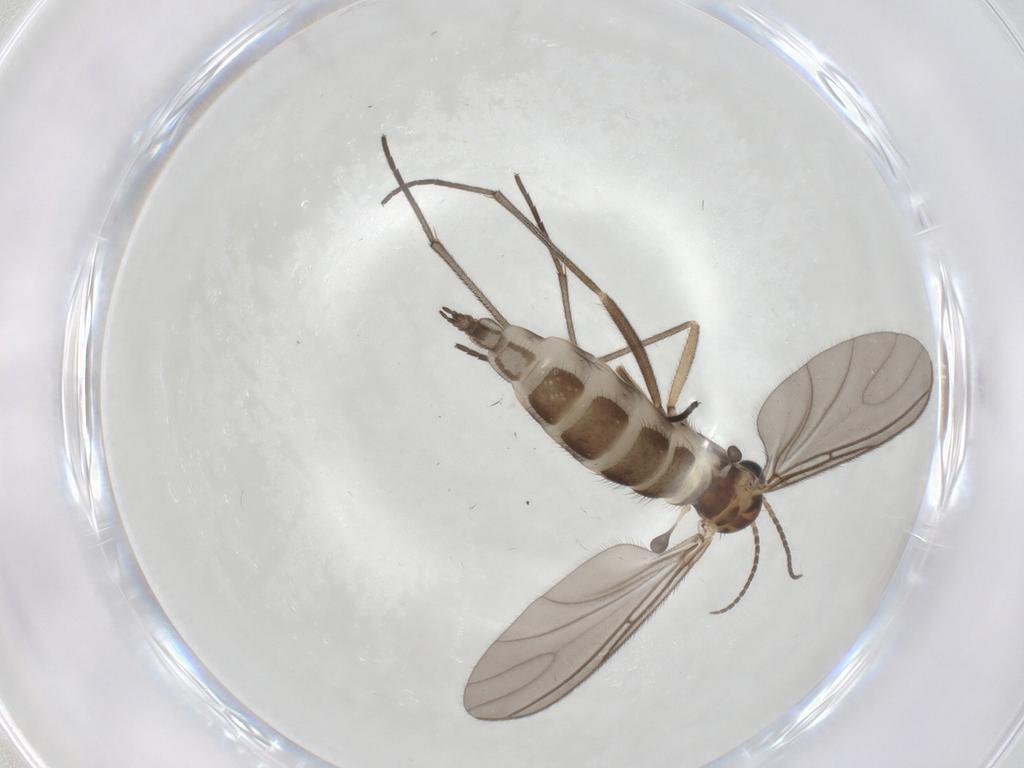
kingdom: Animalia
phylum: Arthropoda
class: Insecta
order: Diptera
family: Sciaridae
